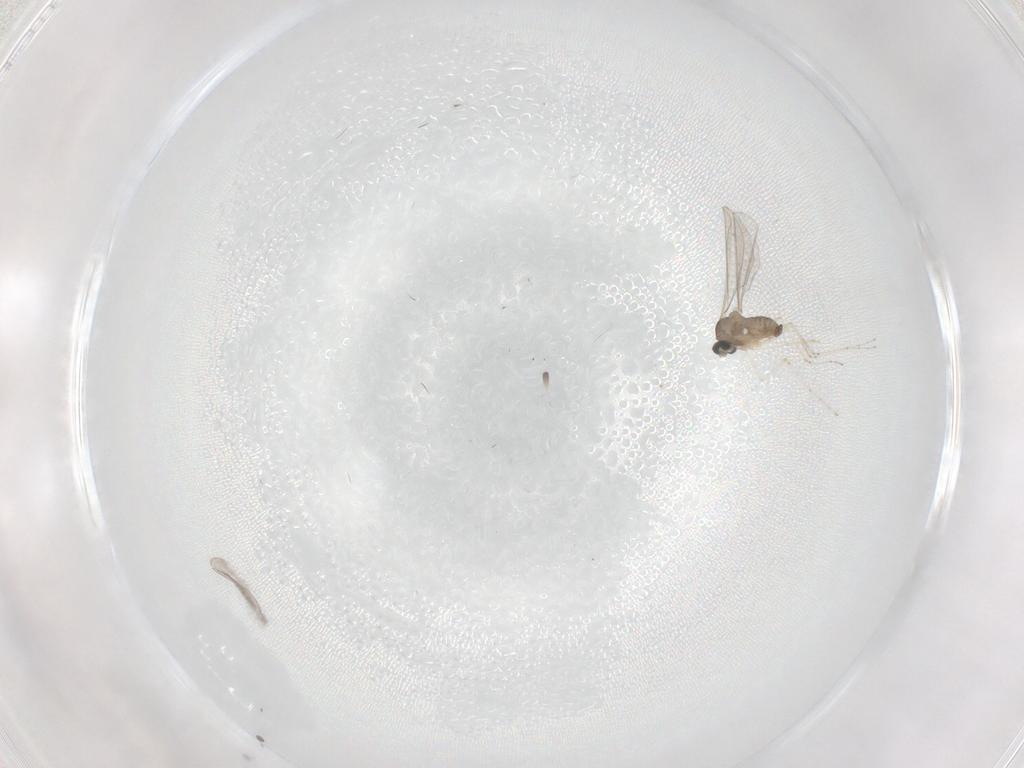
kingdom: Animalia
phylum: Arthropoda
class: Insecta
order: Diptera
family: Cecidomyiidae
